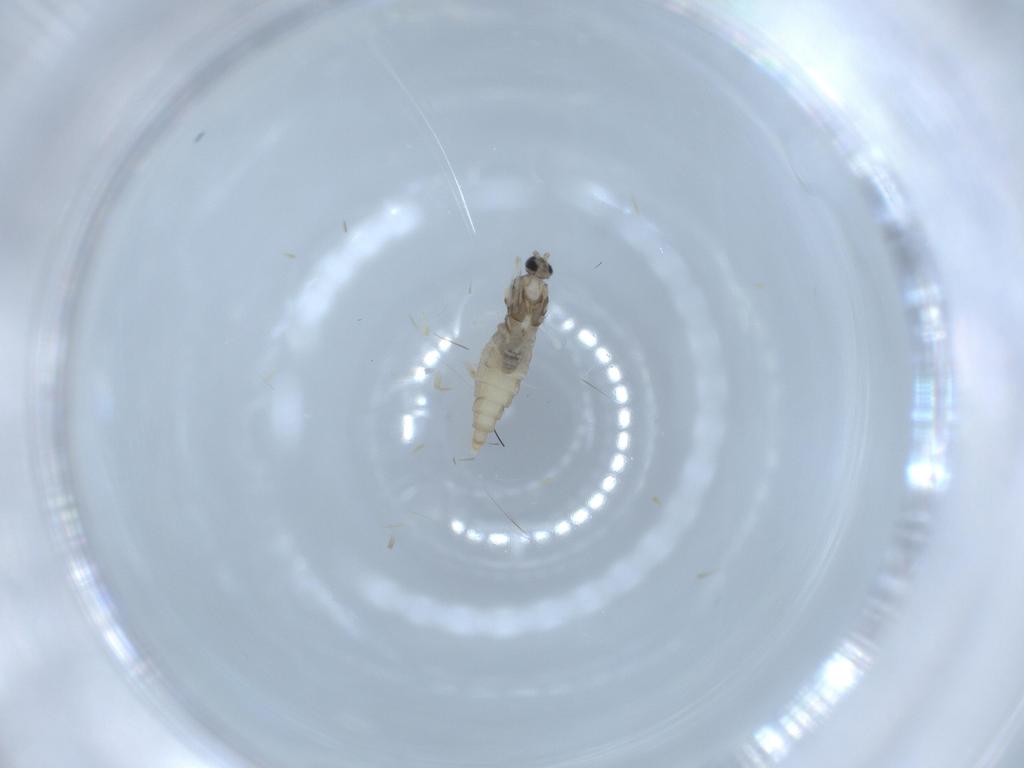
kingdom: Animalia
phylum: Arthropoda
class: Insecta
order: Diptera
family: Cecidomyiidae
